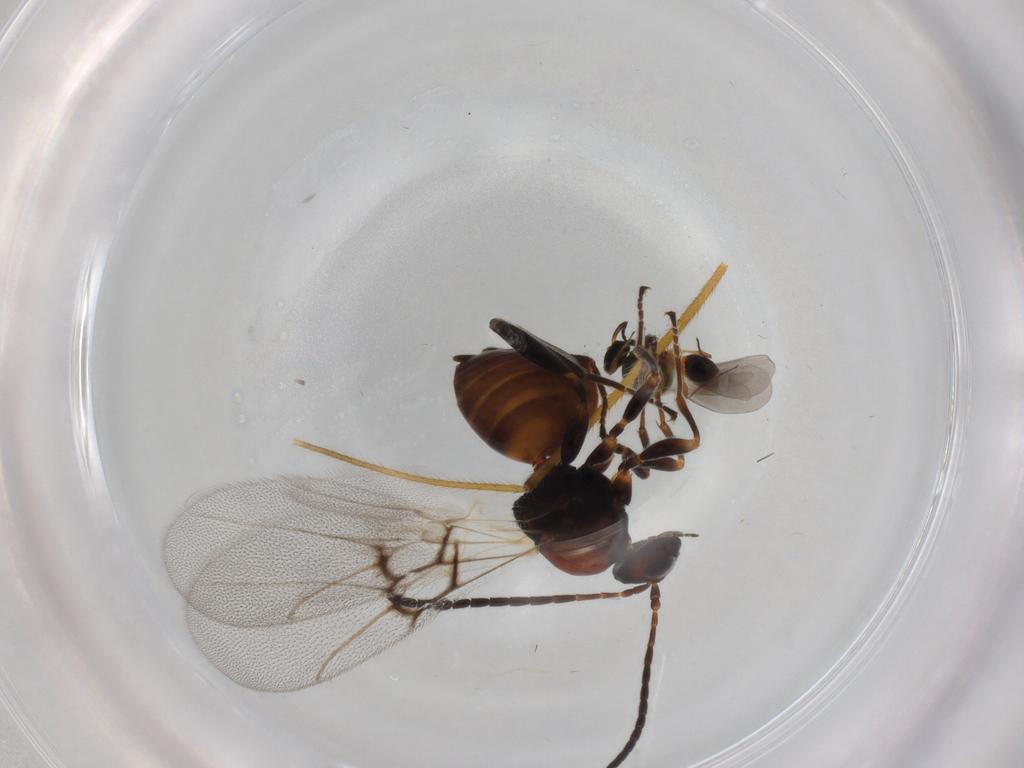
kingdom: Animalia
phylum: Arthropoda
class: Insecta
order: Hymenoptera
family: Cynipidae
